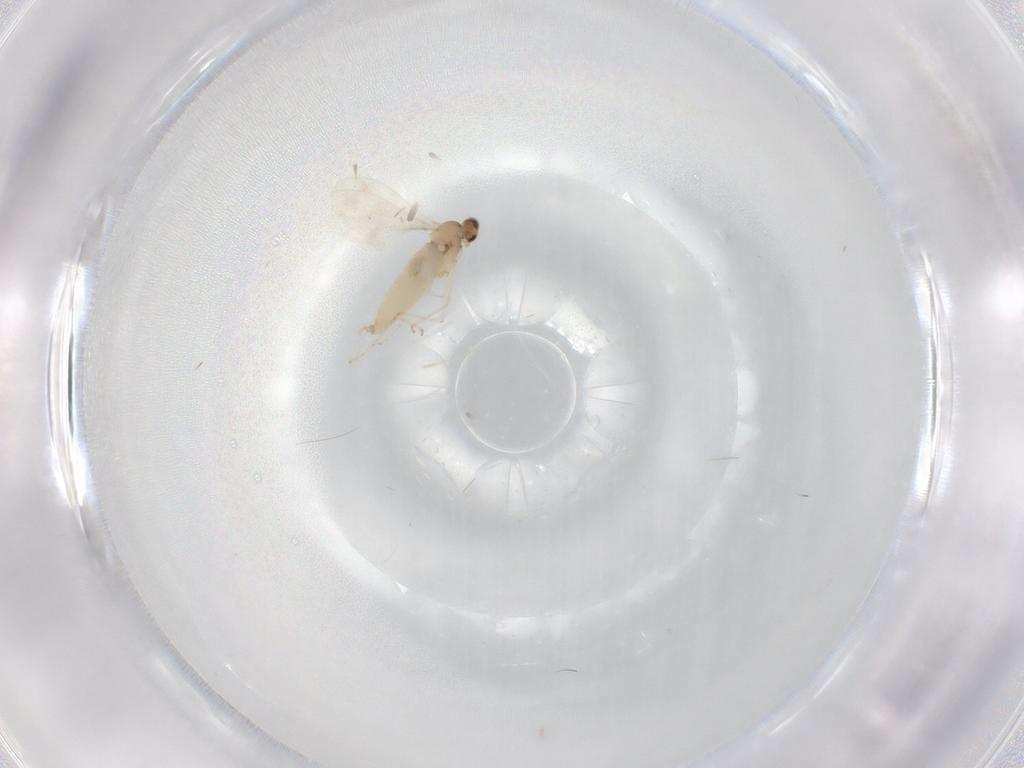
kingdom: Animalia
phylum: Arthropoda
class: Insecta
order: Diptera
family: Cecidomyiidae
